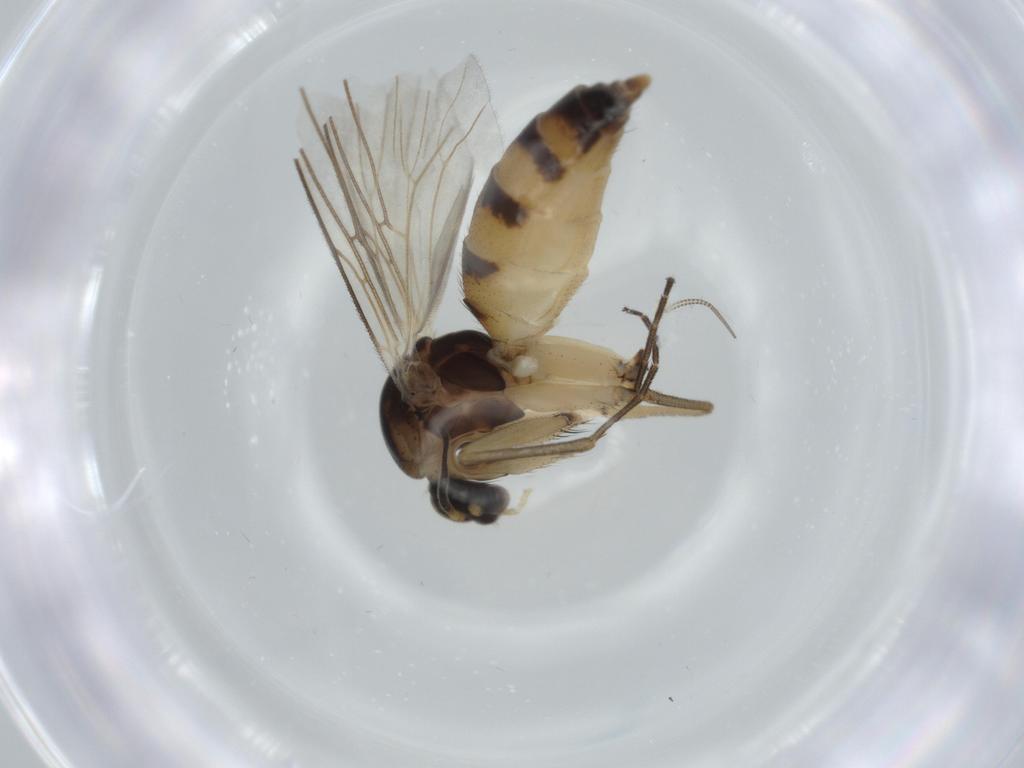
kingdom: Animalia
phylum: Arthropoda
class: Insecta
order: Diptera
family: Mycetophilidae
